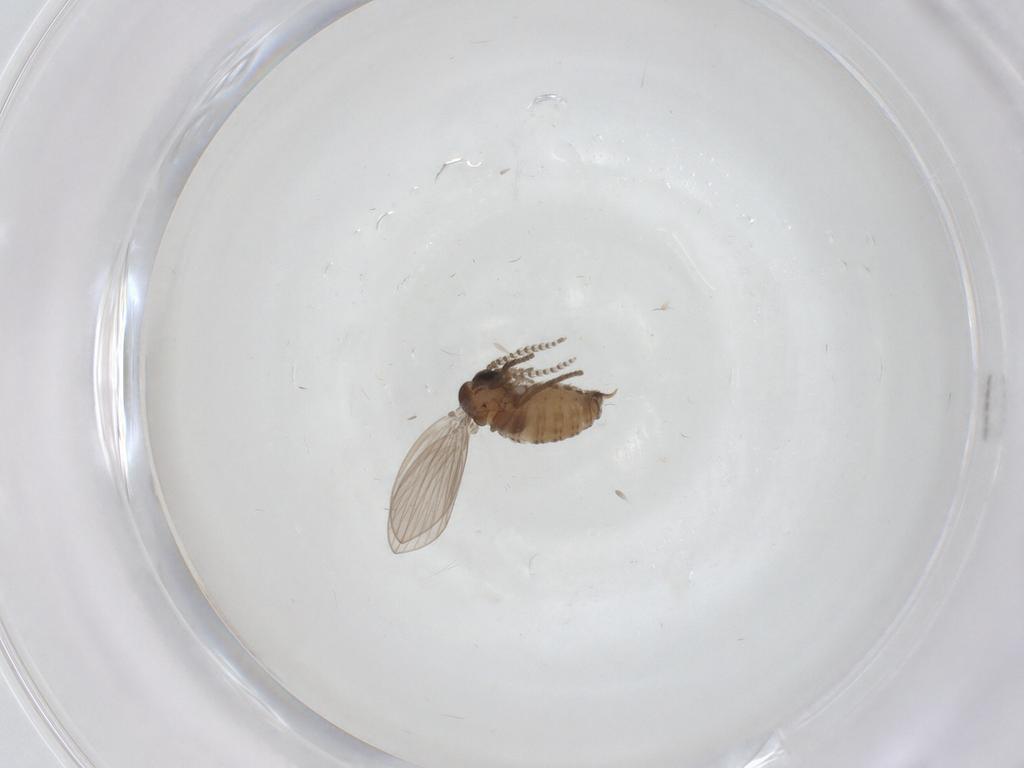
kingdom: Animalia
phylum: Arthropoda
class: Insecta
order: Diptera
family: Psychodidae
